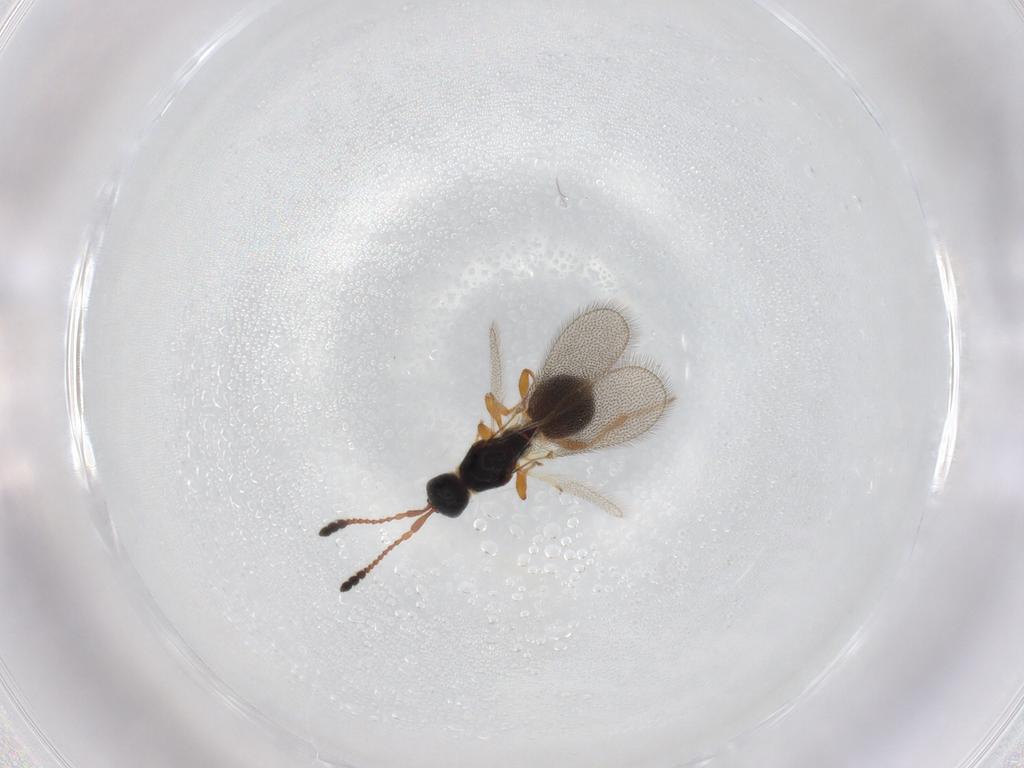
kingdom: Animalia
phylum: Arthropoda
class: Insecta
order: Hymenoptera
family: Diapriidae
